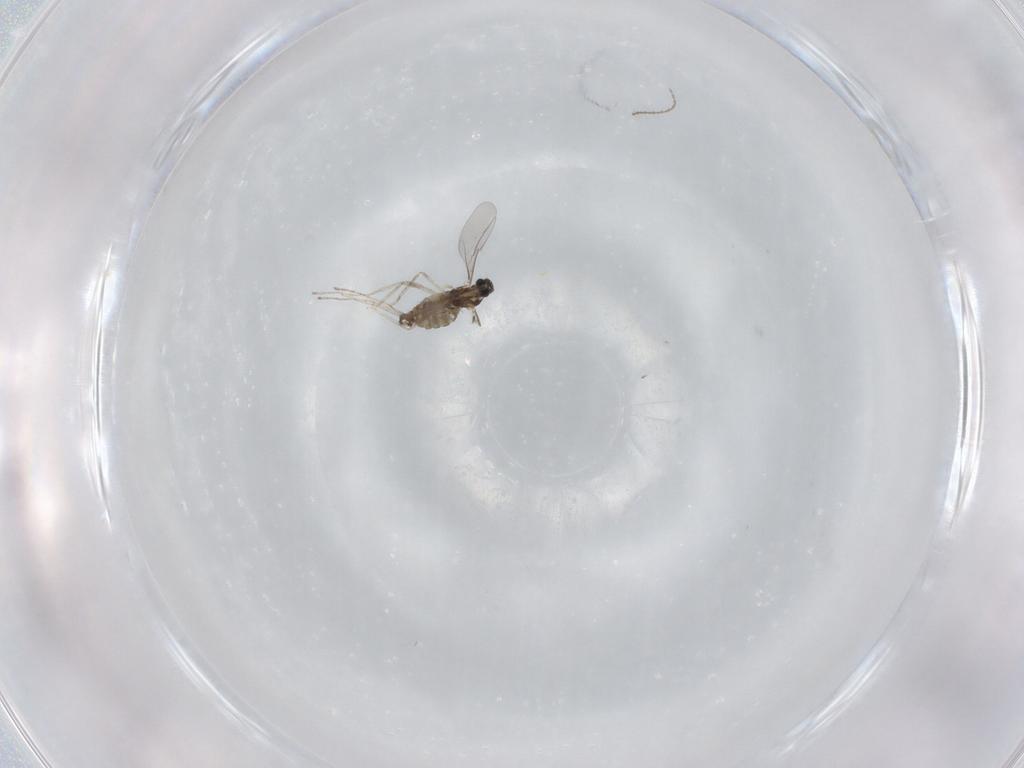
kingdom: Animalia
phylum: Arthropoda
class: Insecta
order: Diptera
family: Cecidomyiidae
